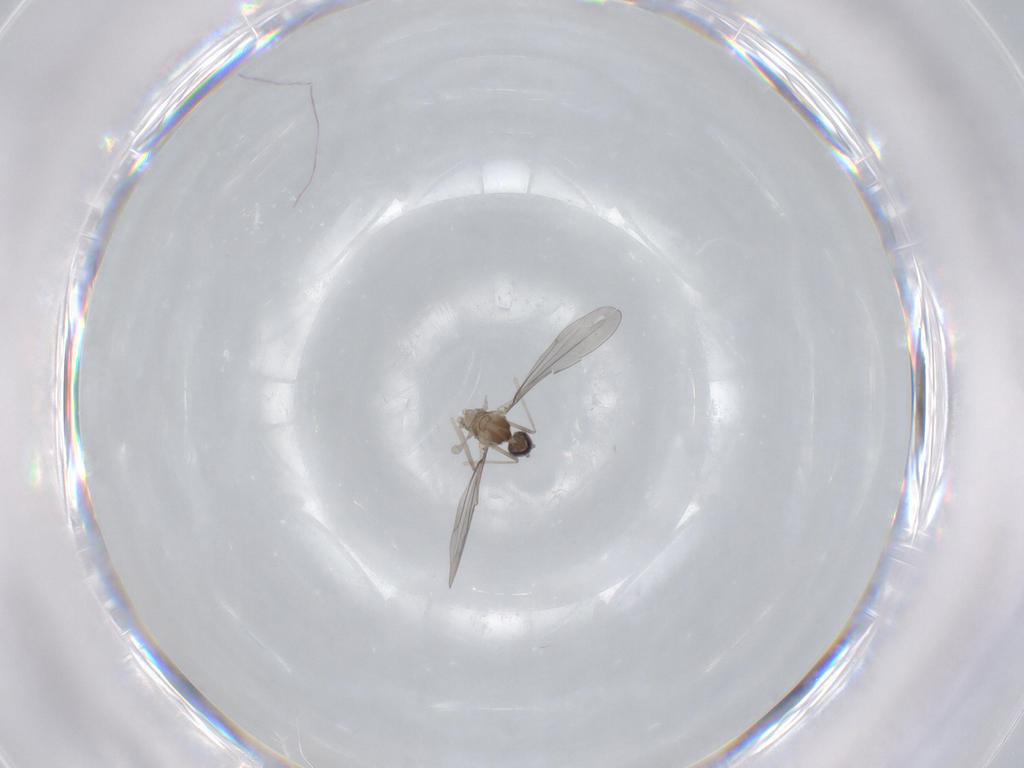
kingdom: Animalia
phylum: Arthropoda
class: Insecta
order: Diptera
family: Cecidomyiidae
